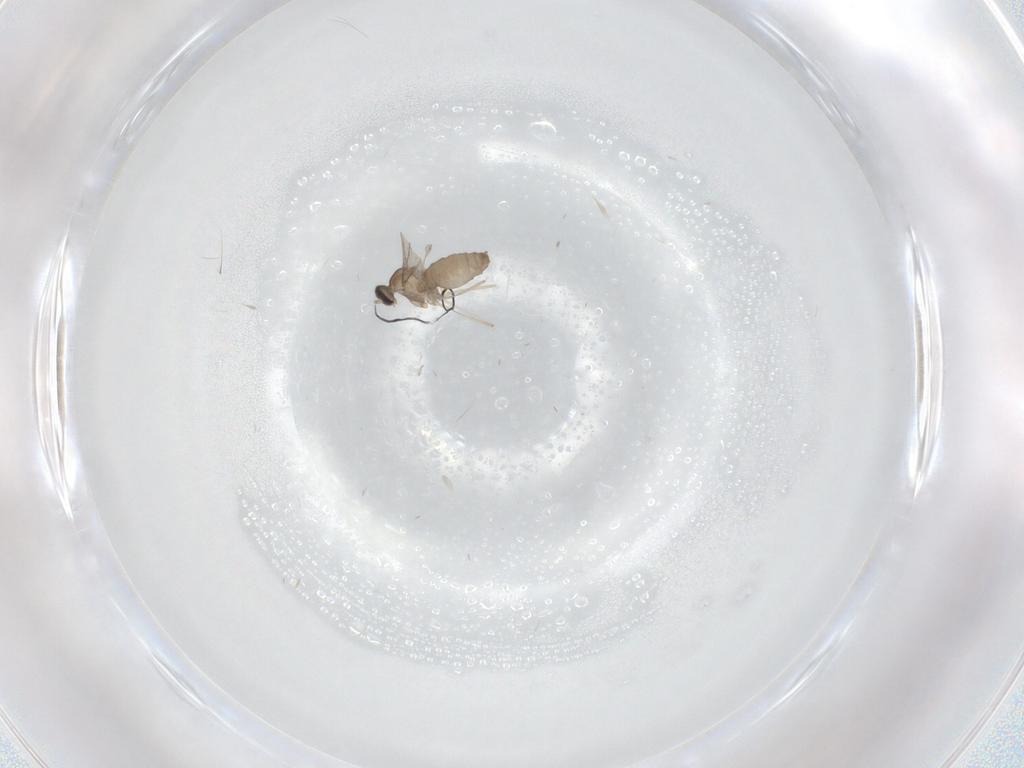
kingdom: Animalia
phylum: Arthropoda
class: Insecta
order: Diptera
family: Cecidomyiidae
